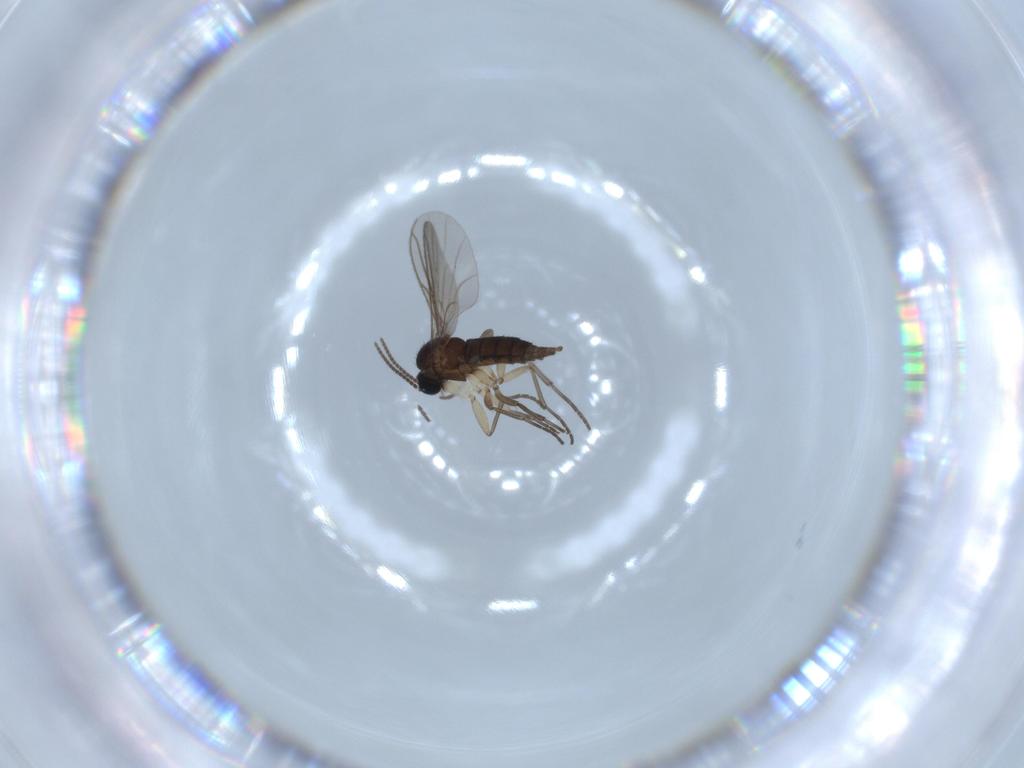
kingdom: Animalia
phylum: Arthropoda
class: Insecta
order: Diptera
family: Sciaridae
